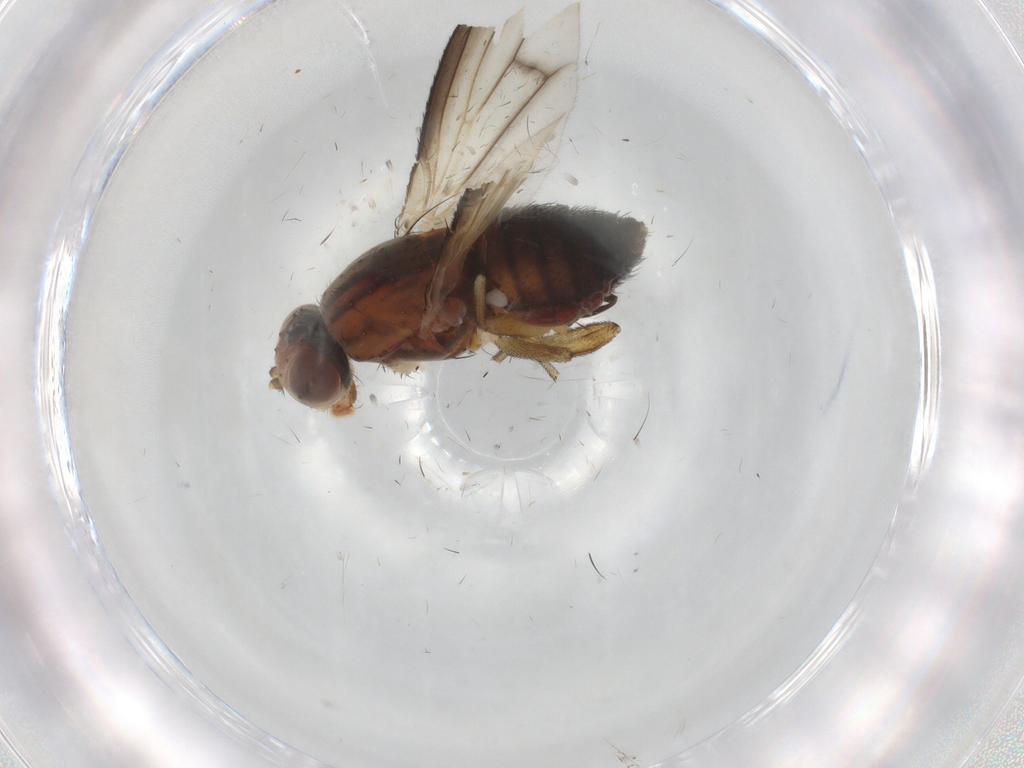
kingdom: Animalia
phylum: Arthropoda
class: Insecta
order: Diptera
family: Heleomyzidae
